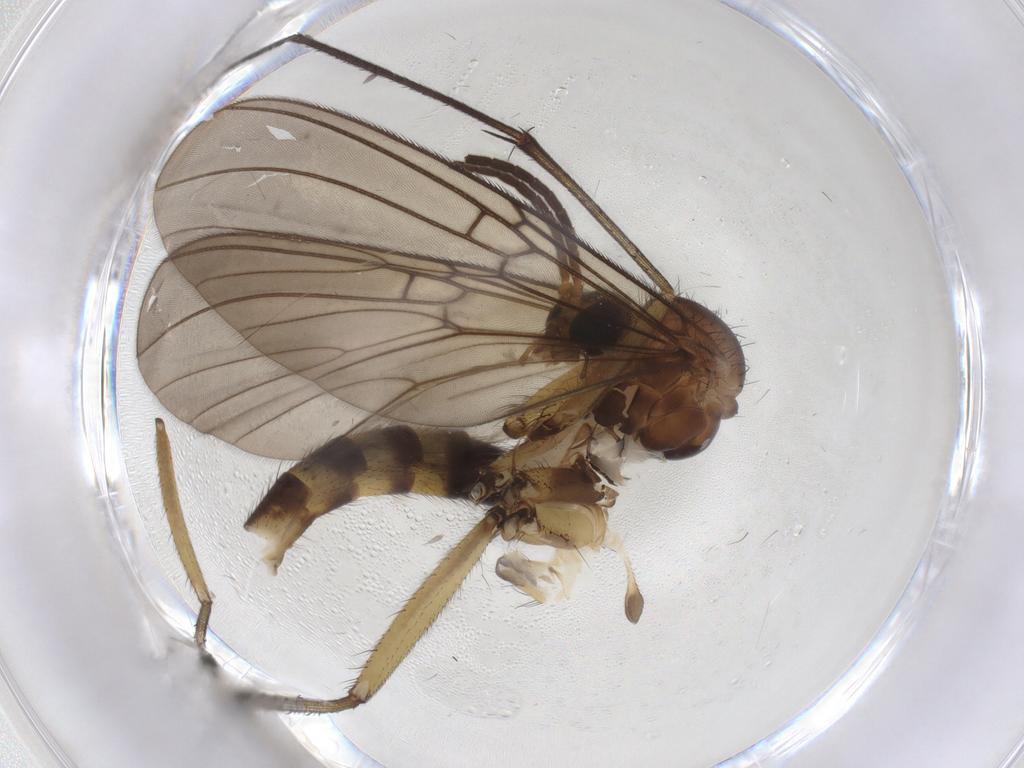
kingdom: Animalia
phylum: Arthropoda
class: Insecta
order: Diptera
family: Mycetophilidae
